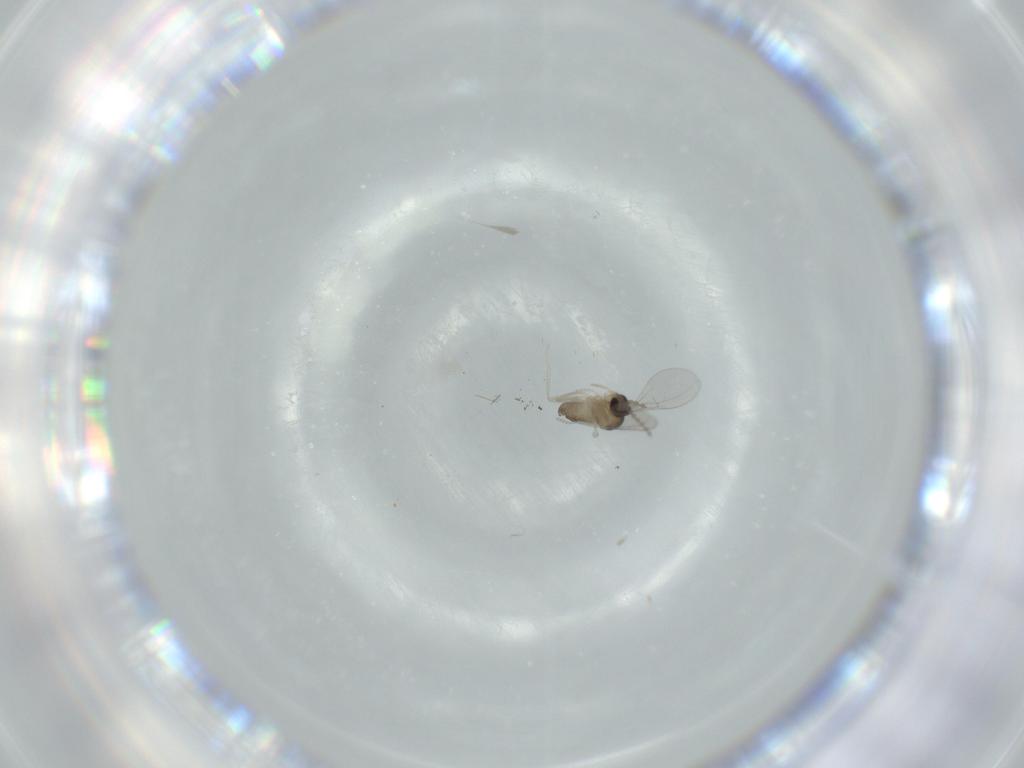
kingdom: Animalia
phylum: Arthropoda
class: Insecta
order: Diptera
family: Cecidomyiidae
